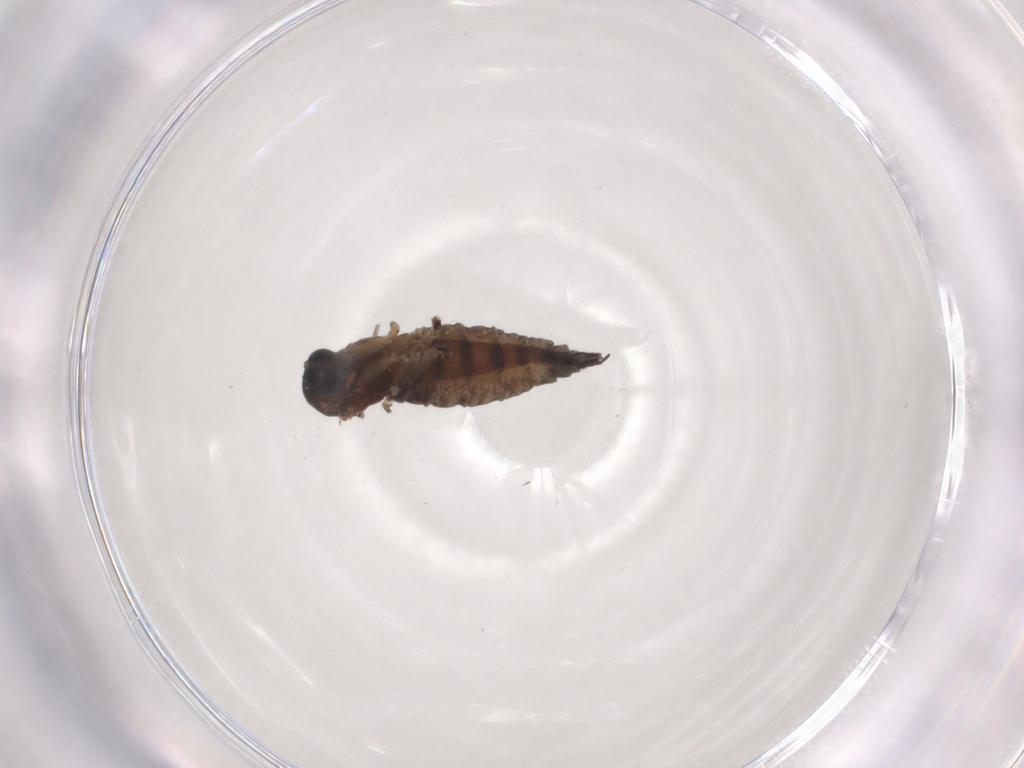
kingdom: Animalia
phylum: Arthropoda
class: Insecta
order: Diptera
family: Sciaridae
